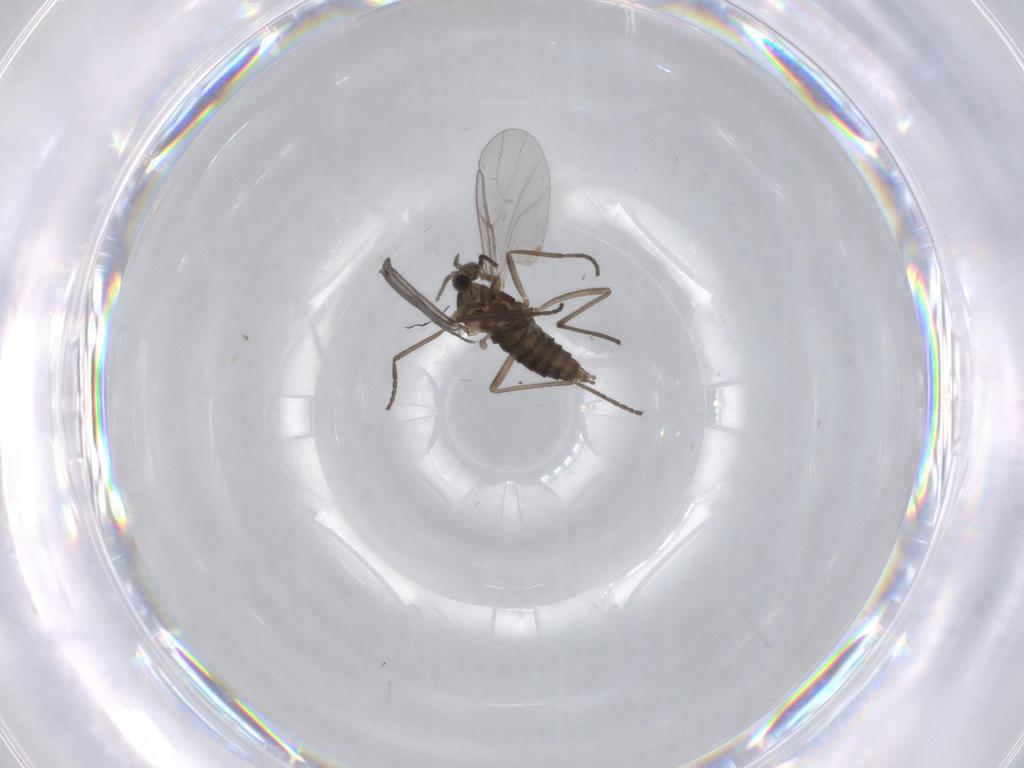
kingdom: Animalia
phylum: Arthropoda
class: Insecta
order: Diptera
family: Cecidomyiidae
